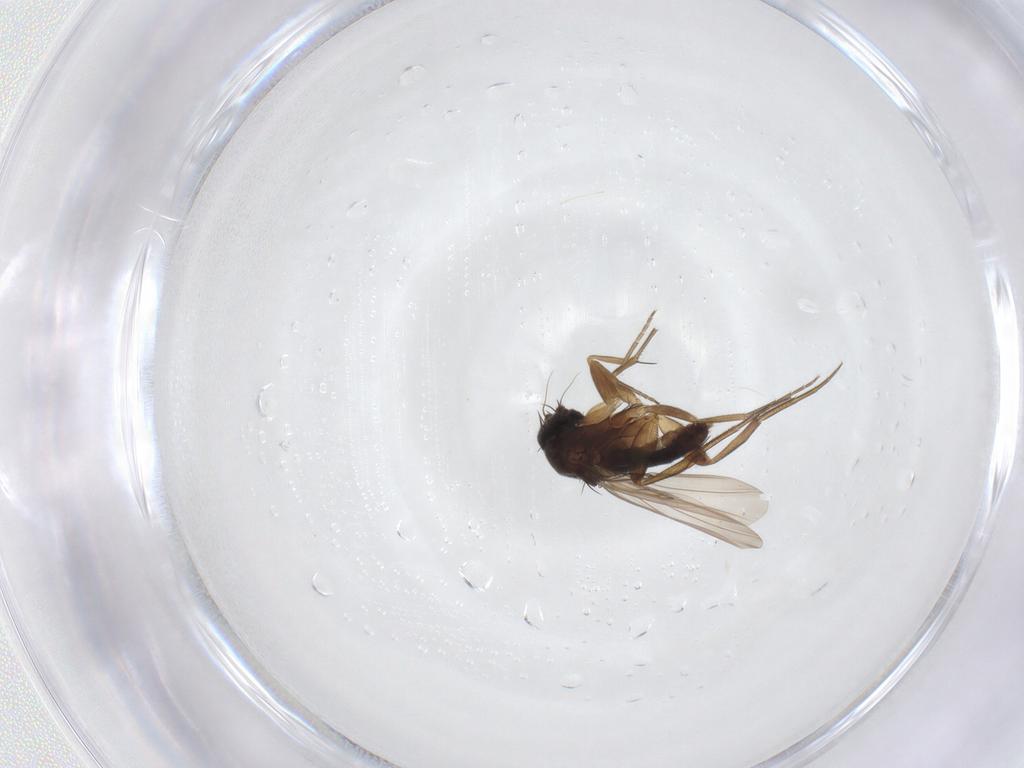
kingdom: Animalia
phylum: Arthropoda
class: Insecta
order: Diptera
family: Phoridae
